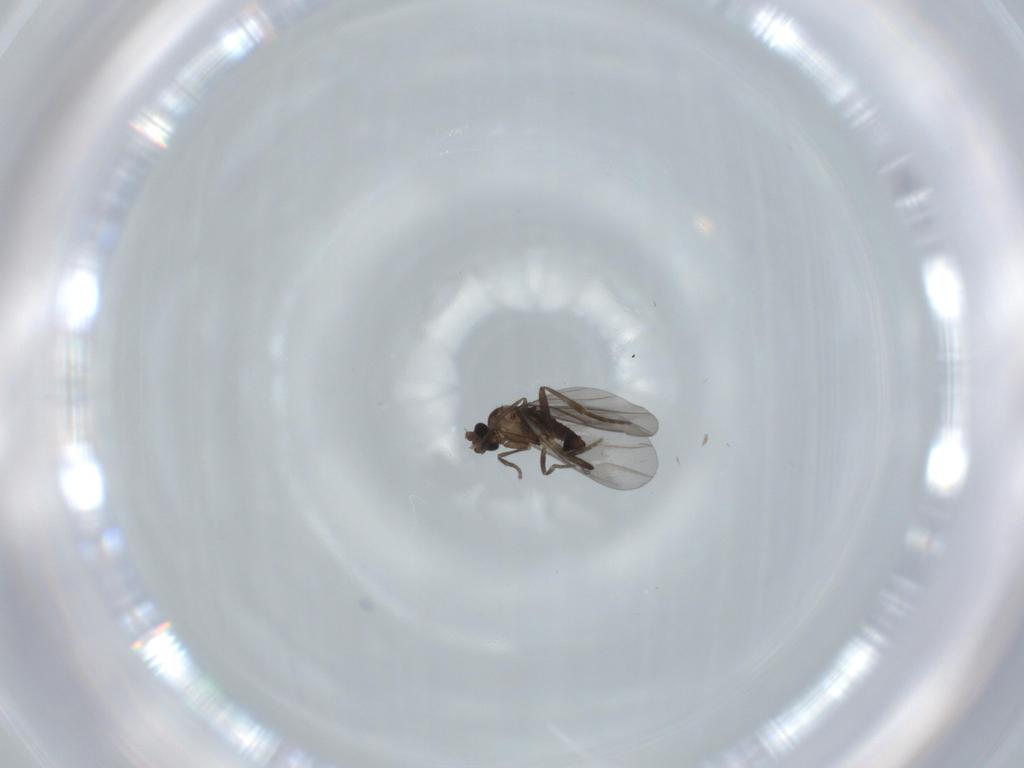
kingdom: Animalia
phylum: Arthropoda
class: Insecta
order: Diptera
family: Phoridae
